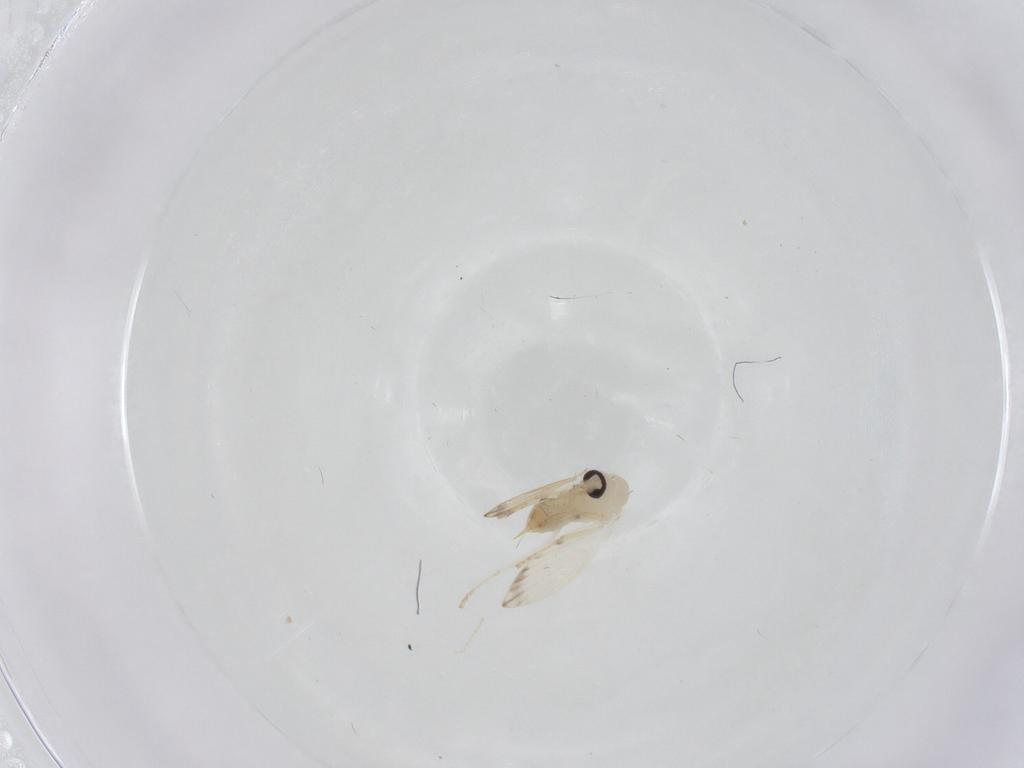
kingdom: Animalia
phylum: Arthropoda
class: Insecta
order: Diptera
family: Psychodidae
